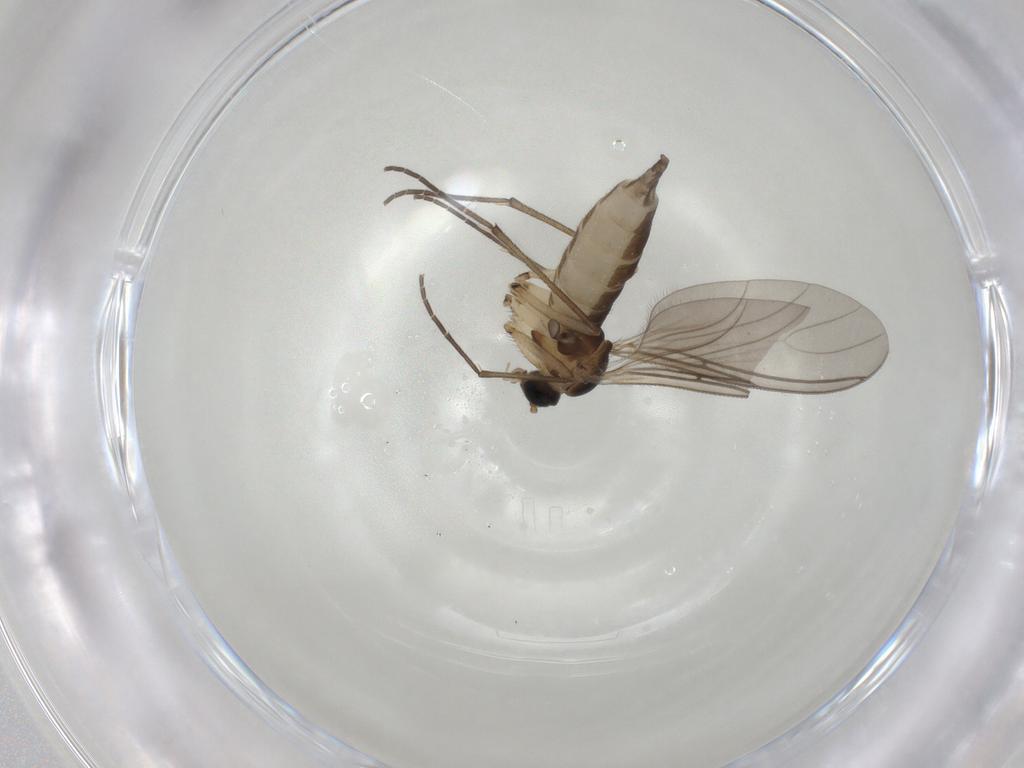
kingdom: Animalia
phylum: Arthropoda
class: Insecta
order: Diptera
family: Sciaridae
